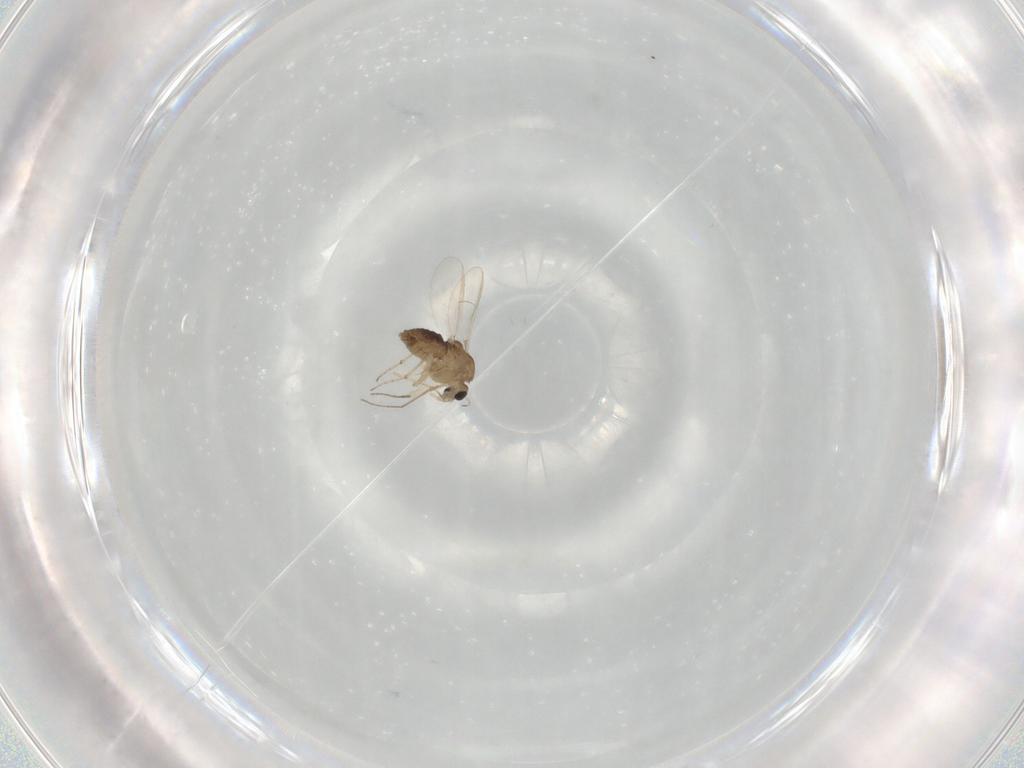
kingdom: Animalia
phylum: Arthropoda
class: Insecta
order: Diptera
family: Chironomidae
